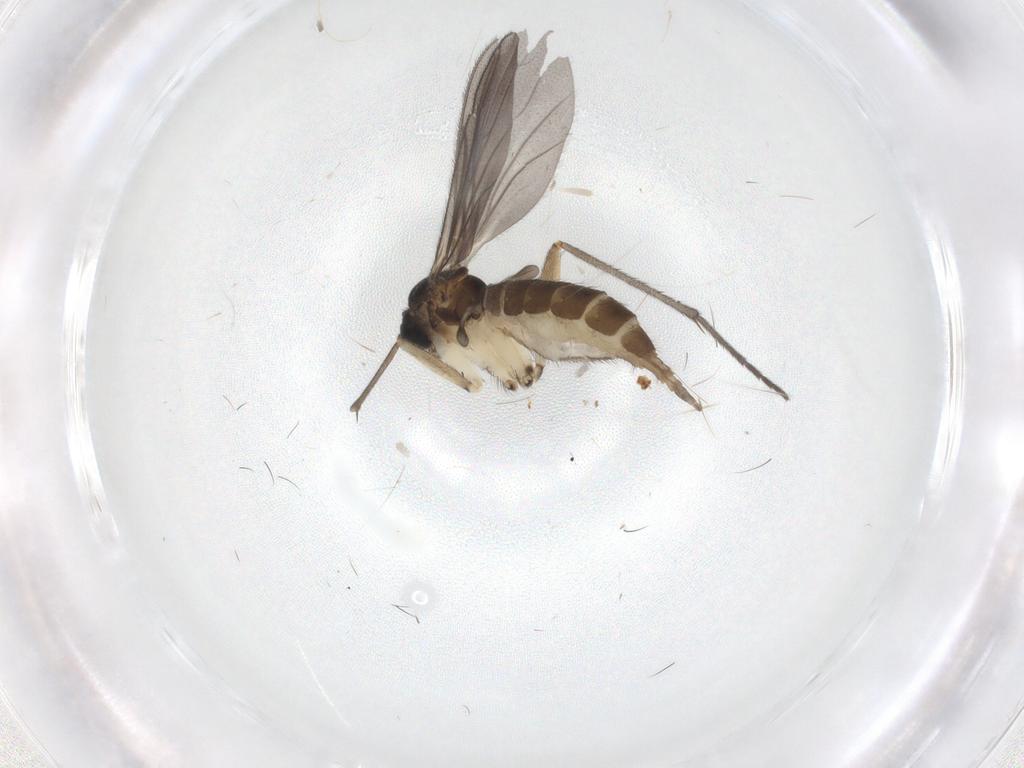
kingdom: Animalia
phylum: Arthropoda
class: Insecta
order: Diptera
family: Sciaridae
